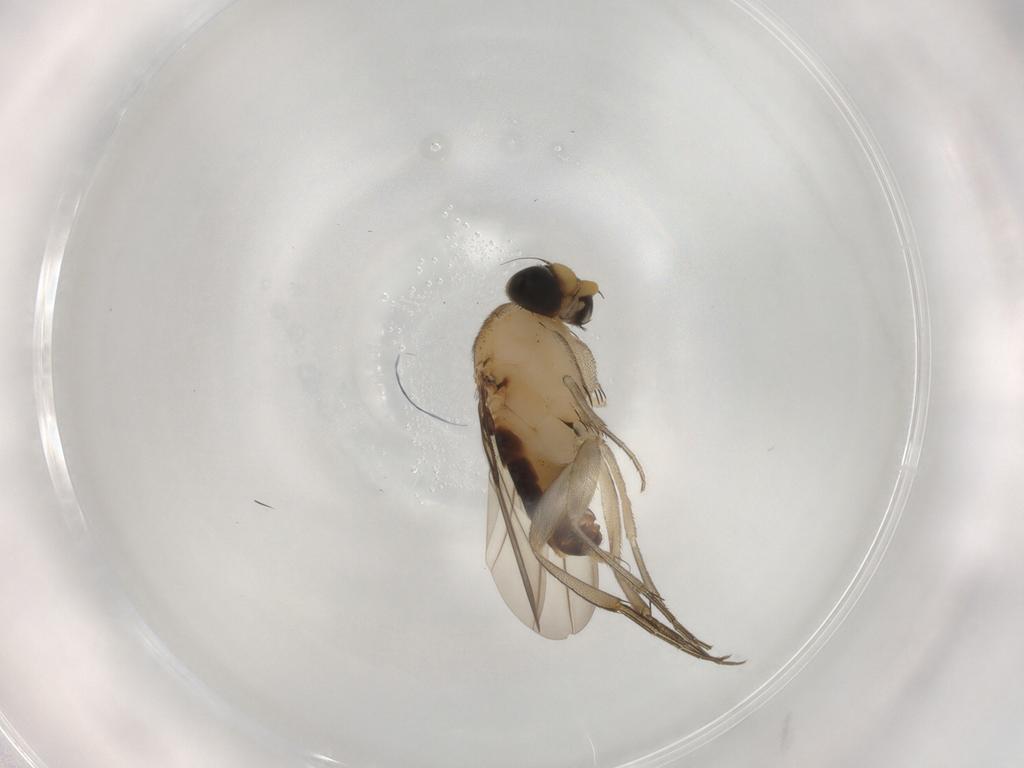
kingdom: Animalia
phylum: Arthropoda
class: Insecta
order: Diptera
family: Phoridae
